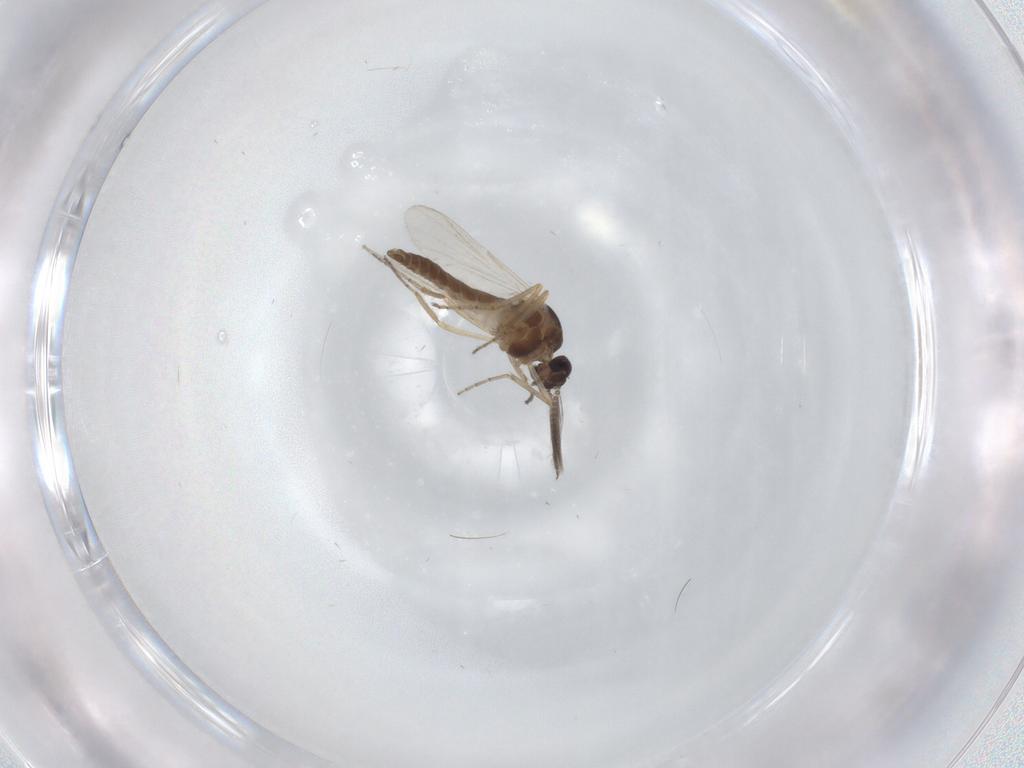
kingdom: Animalia
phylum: Arthropoda
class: Insecta
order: Diptera
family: Ceratopogonidae
